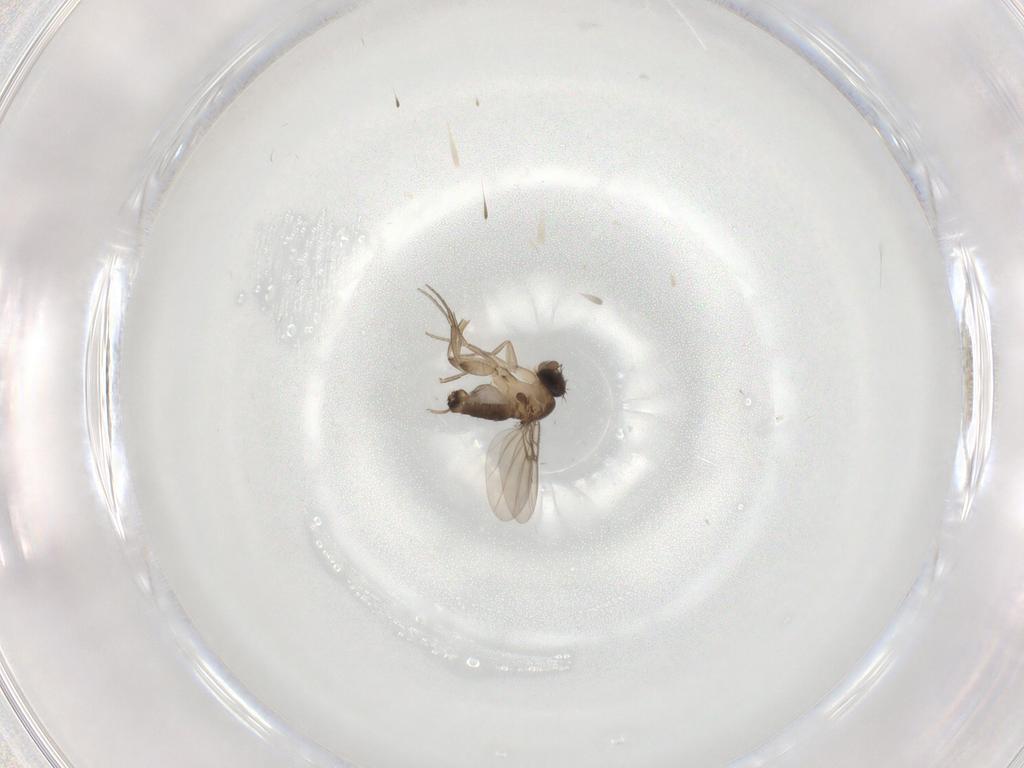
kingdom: Animalia
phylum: Arthropoda
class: Insecta
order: Diptera
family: Phoridae
